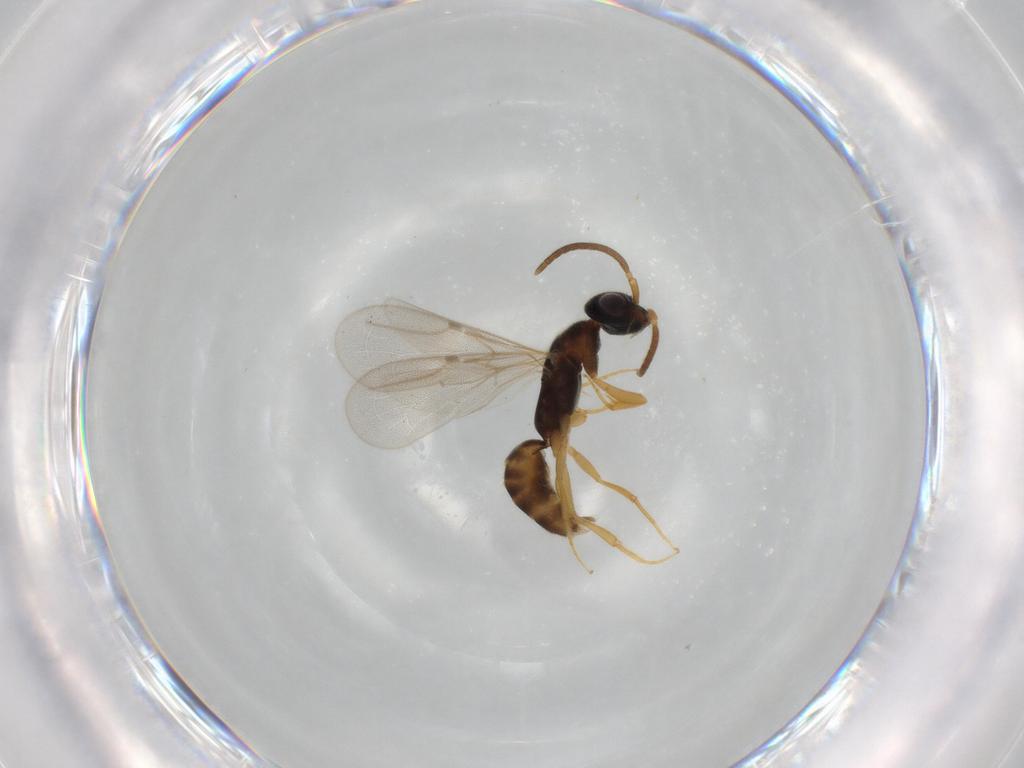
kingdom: Animalia
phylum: Arthropoda
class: Insecta
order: Hymenoptera
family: Bethylidae
